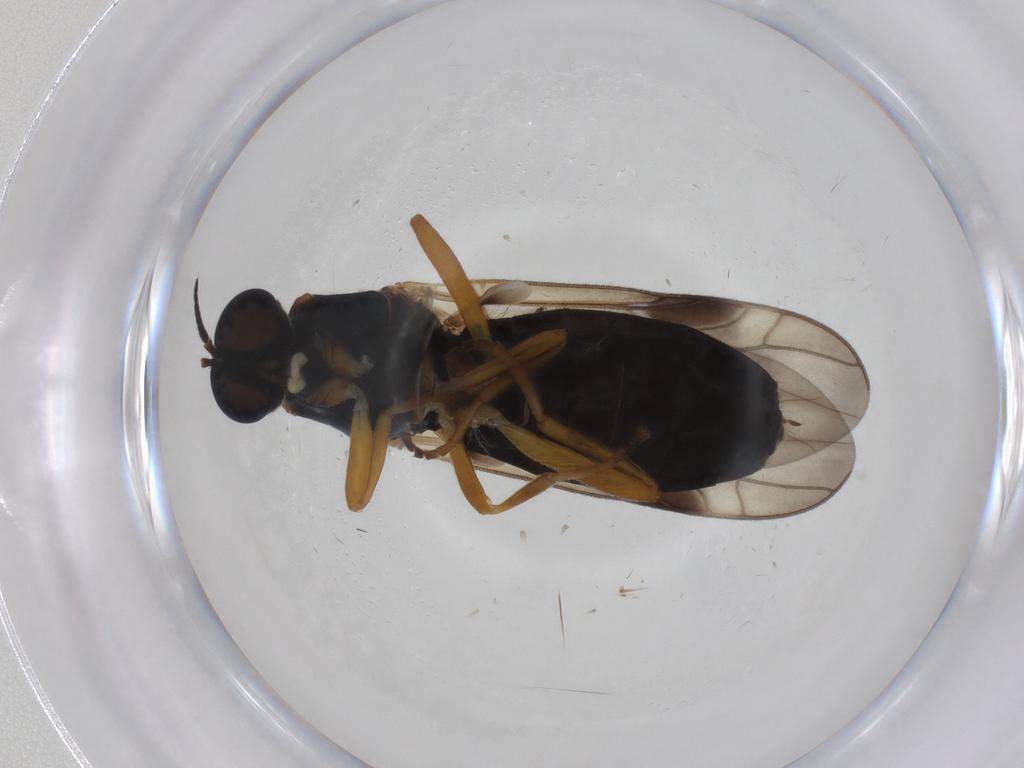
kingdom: Animalia
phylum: Arthropoda
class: Insecta
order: Diptera
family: Stratiomyidae
